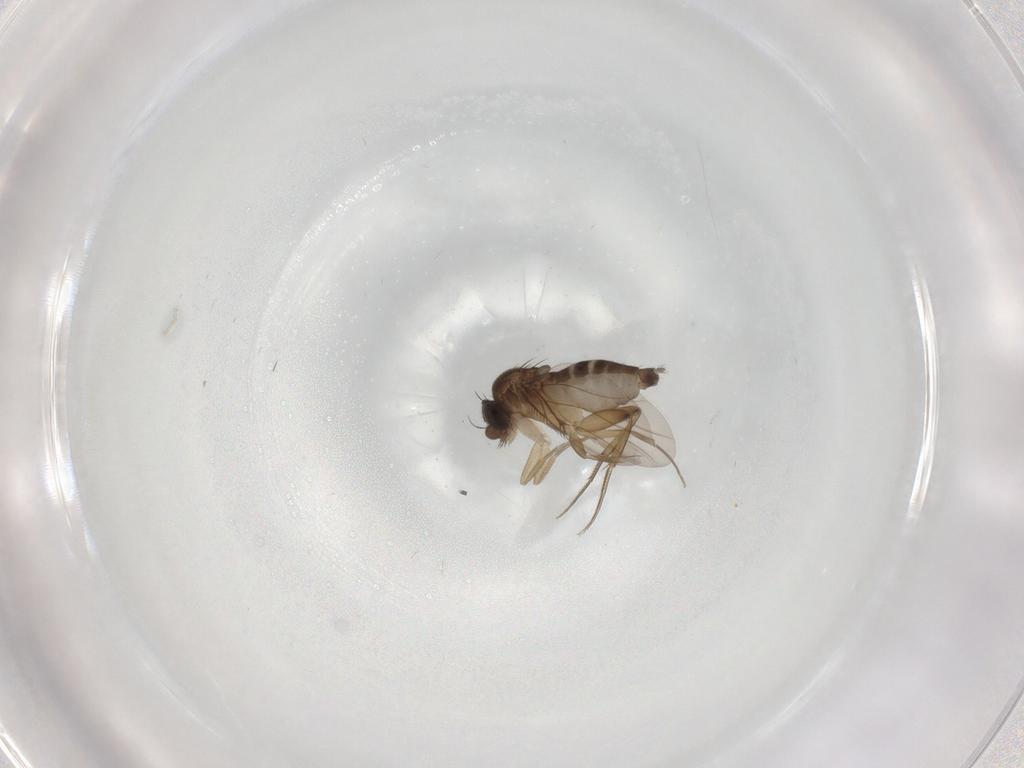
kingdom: Animalia
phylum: Arthropoda
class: Insecta
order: Diptera
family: Phoridae
